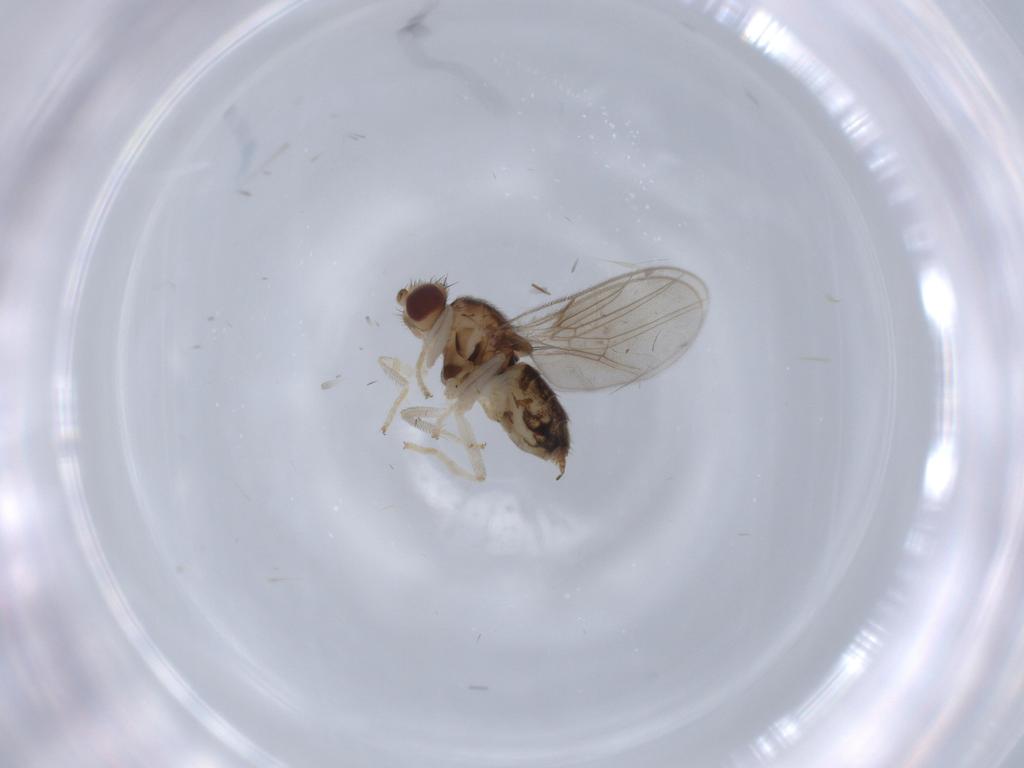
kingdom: Animalia
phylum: Arthropoda
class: Insecta
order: Diptera
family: Chloropidae
